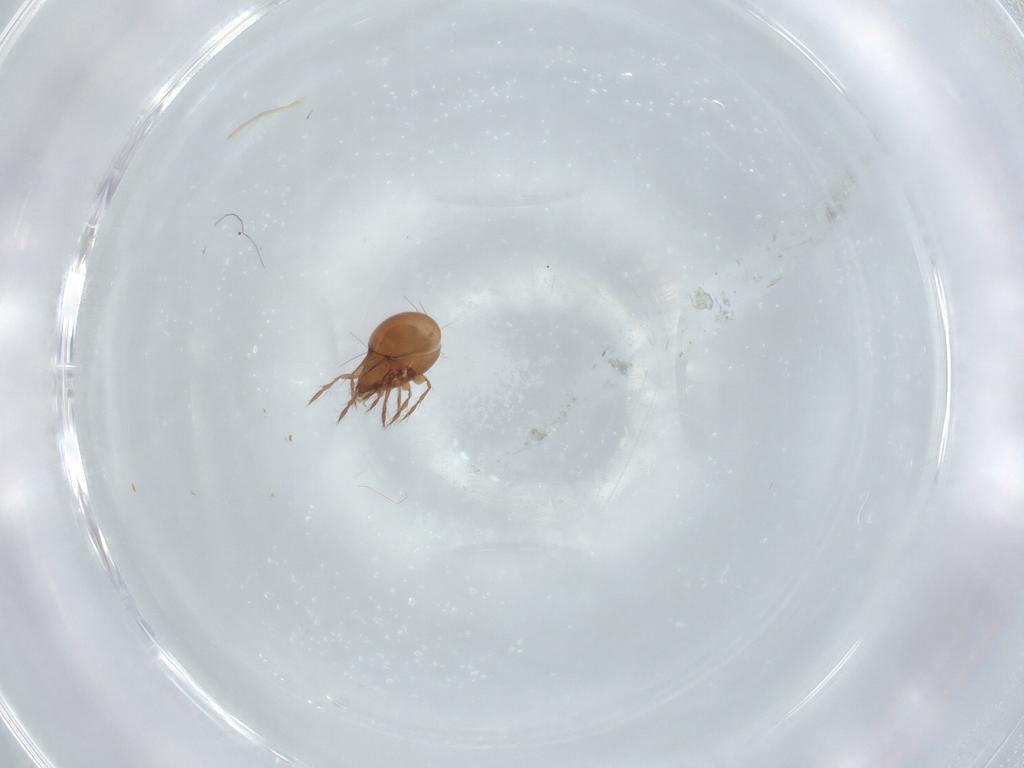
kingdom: Animalia
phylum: Arthropoda
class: Arachnida
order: Sarcoptiformes
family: Ceratoppiidae
